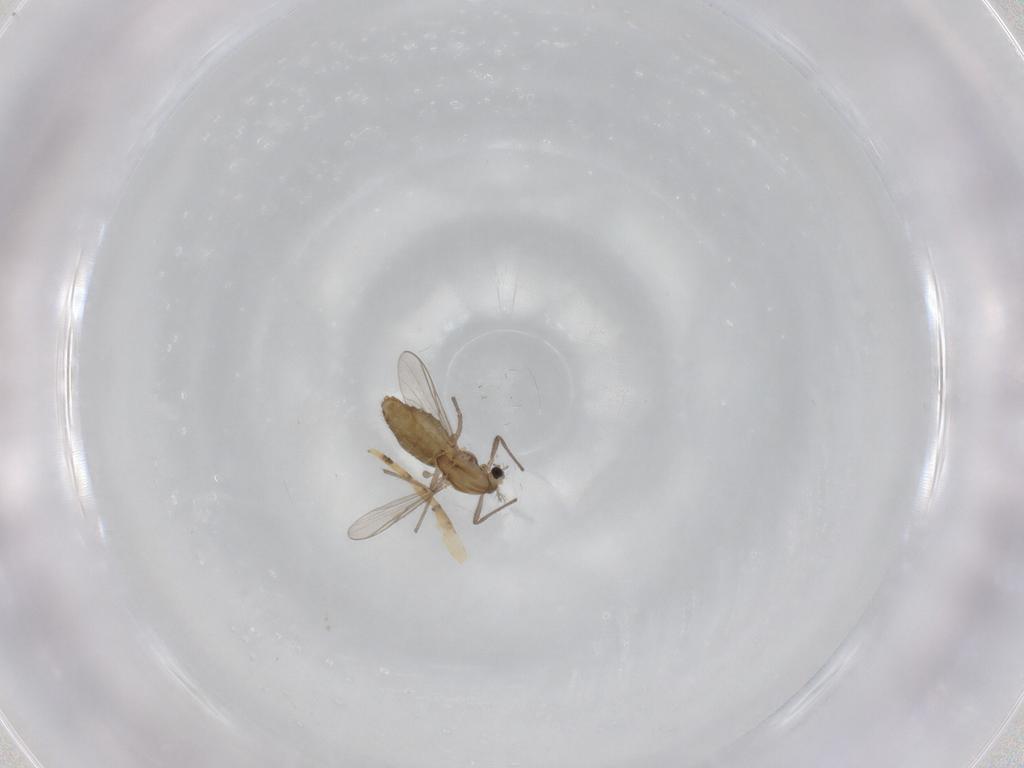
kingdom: Animalia
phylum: Arthropoda
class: Insecta
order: Diptera
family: Chironomidae
